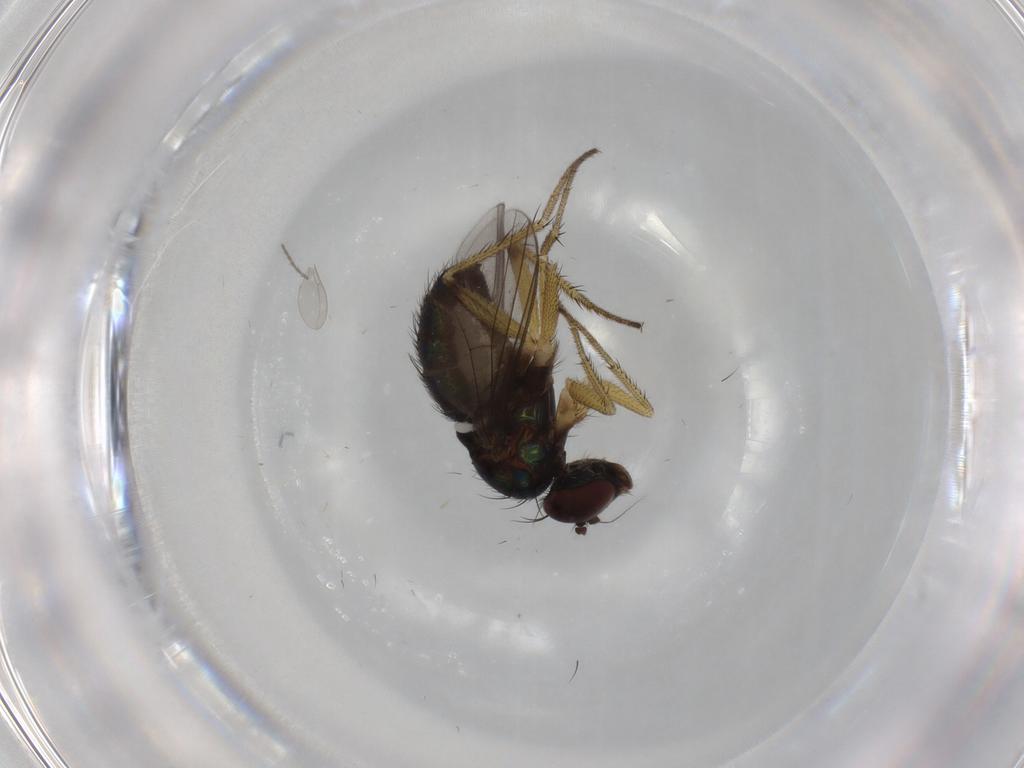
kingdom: Animalia
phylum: Arthropoda
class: Insecta
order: Diptera
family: Dolichopodidae
